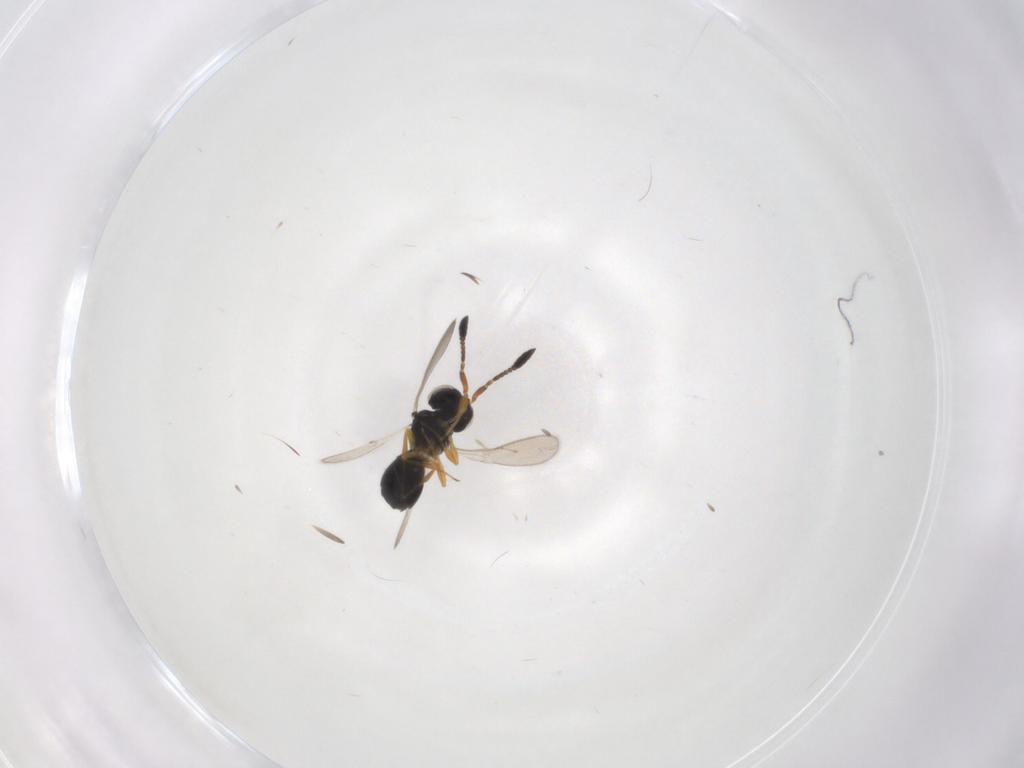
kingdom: Animalia
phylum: Arthropoda
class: Insecta
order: Hymenoptera
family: Scelionidae
